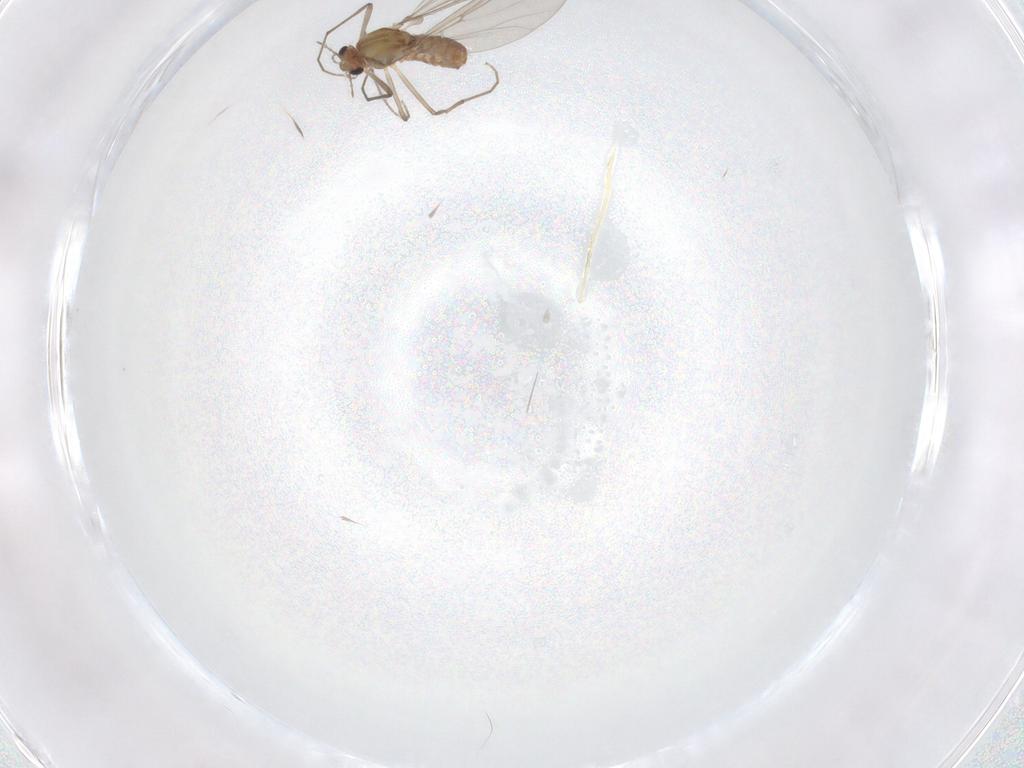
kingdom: Animalia
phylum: Arthropoda
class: Insecta
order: Diptera
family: Chironomidae
